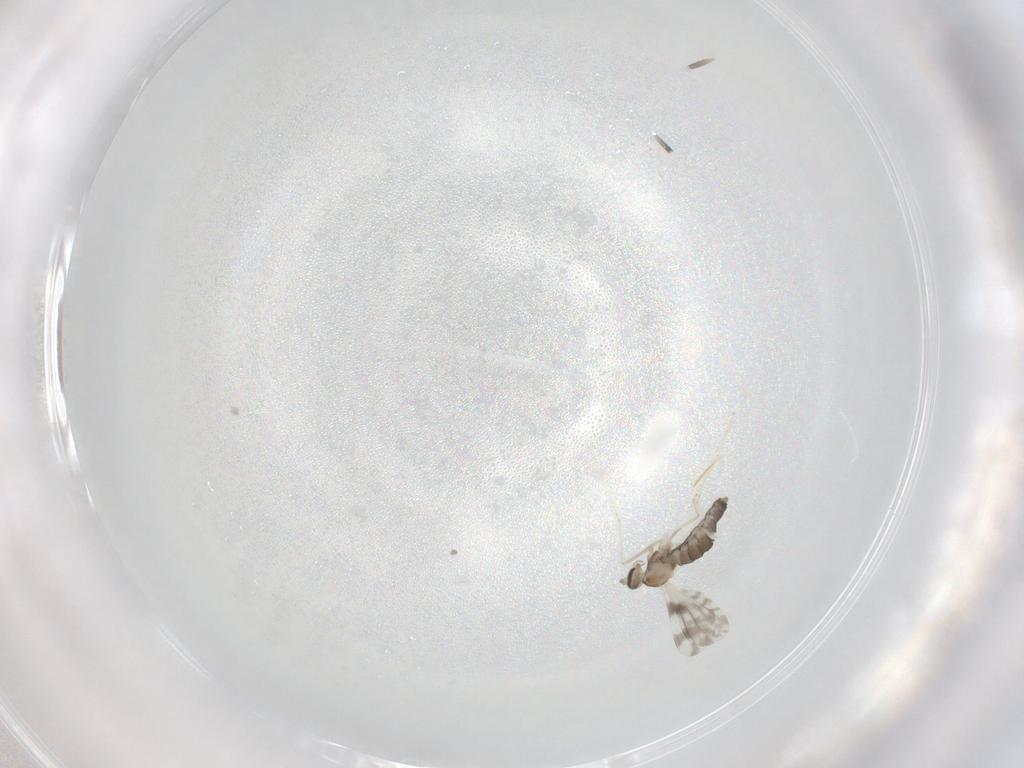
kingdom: Animalia
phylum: Arthropoda
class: Insecta
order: Diptera
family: Cecidomyiidae
